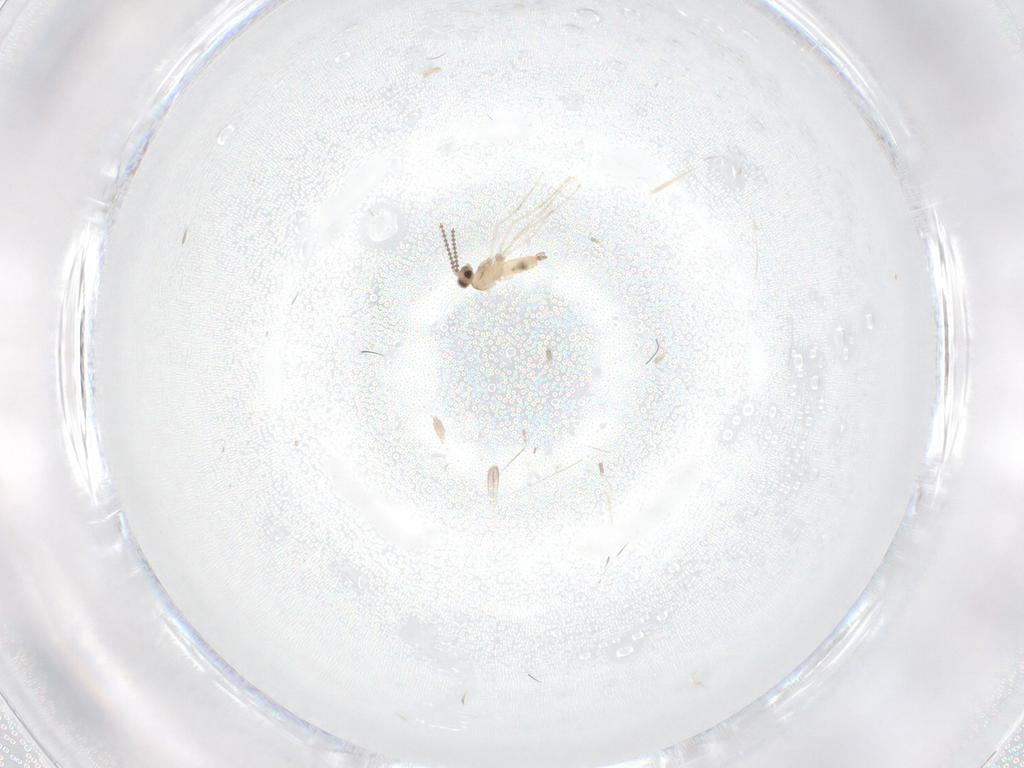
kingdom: Animalia
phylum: Arthropoda
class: Insecta
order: Diptera
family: Cecidomyiidae
